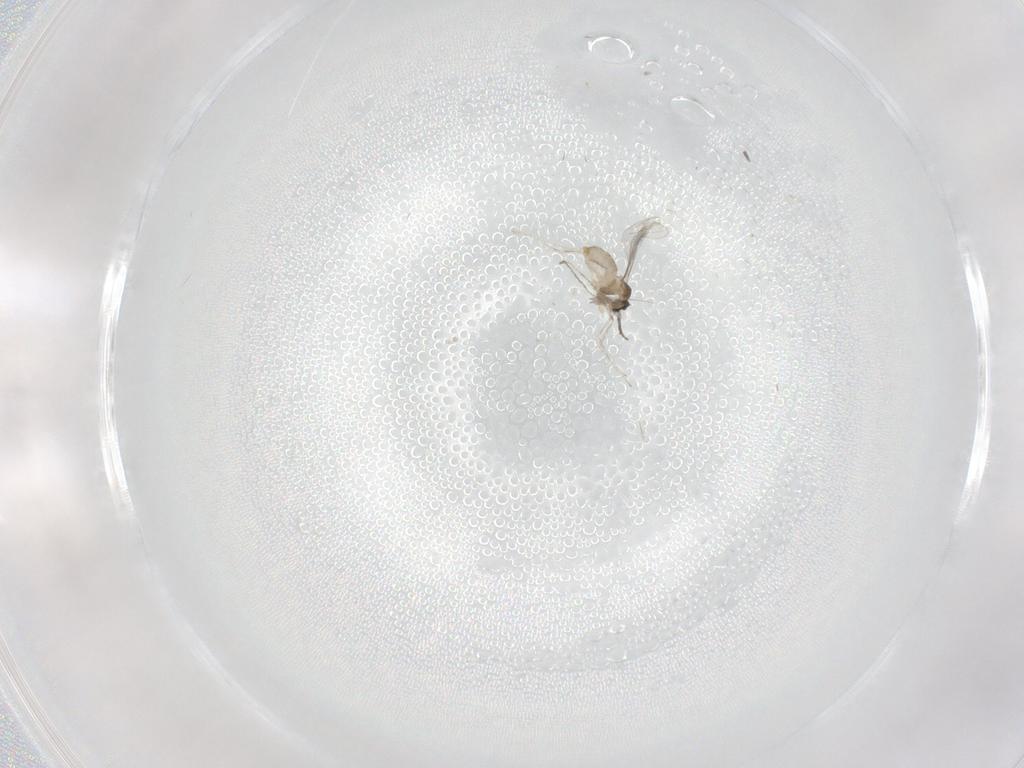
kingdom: Animalia
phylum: Arthropoda
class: Insecta
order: Diptera
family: Cecidomyiidae
